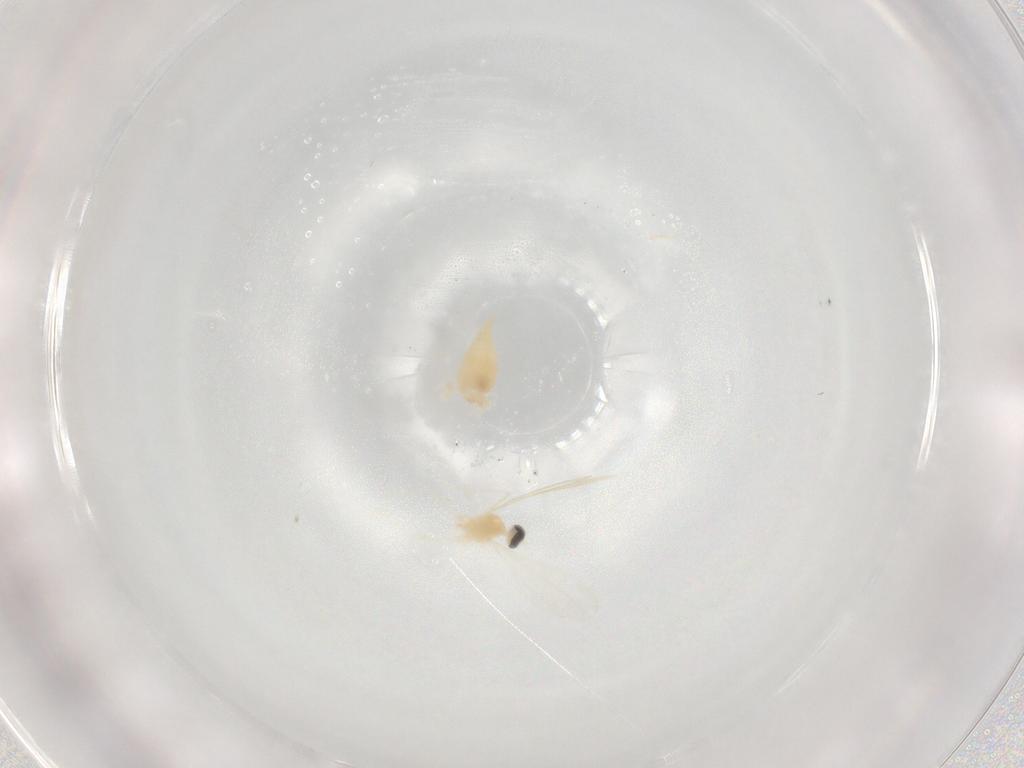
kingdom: Animalia
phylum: Arthropoda
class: Insecta
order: Diptera
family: Cecidomyiidae
